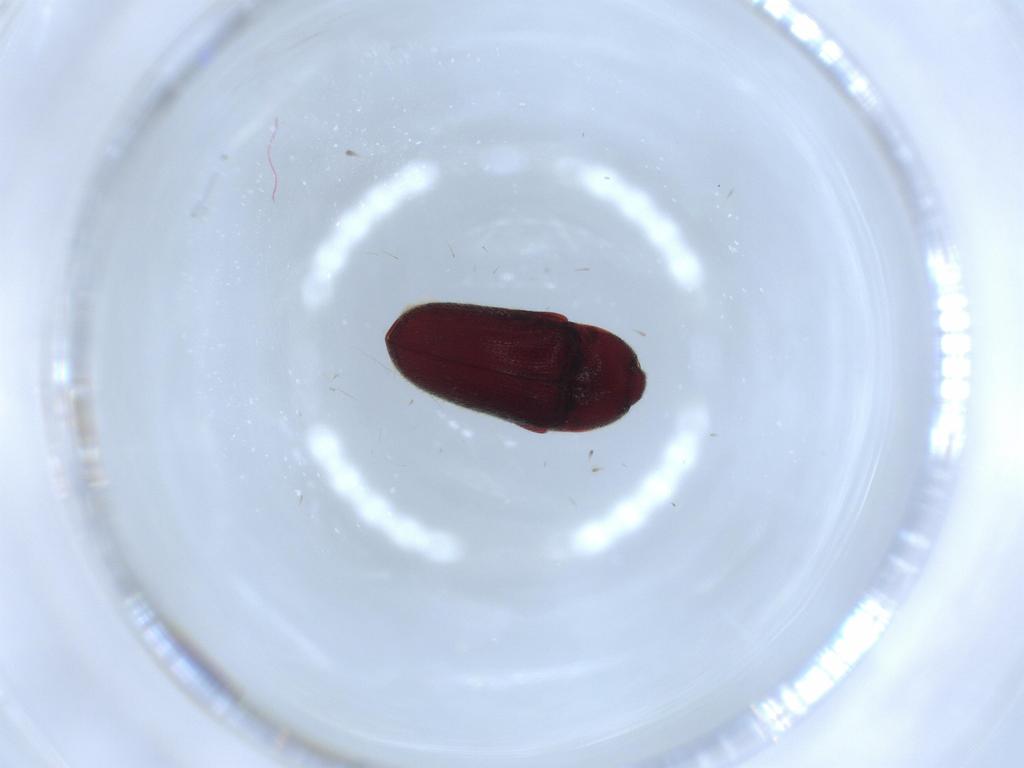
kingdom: Animalia
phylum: Arthropoda
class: Insecta
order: Coleoptera
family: Throscidae
